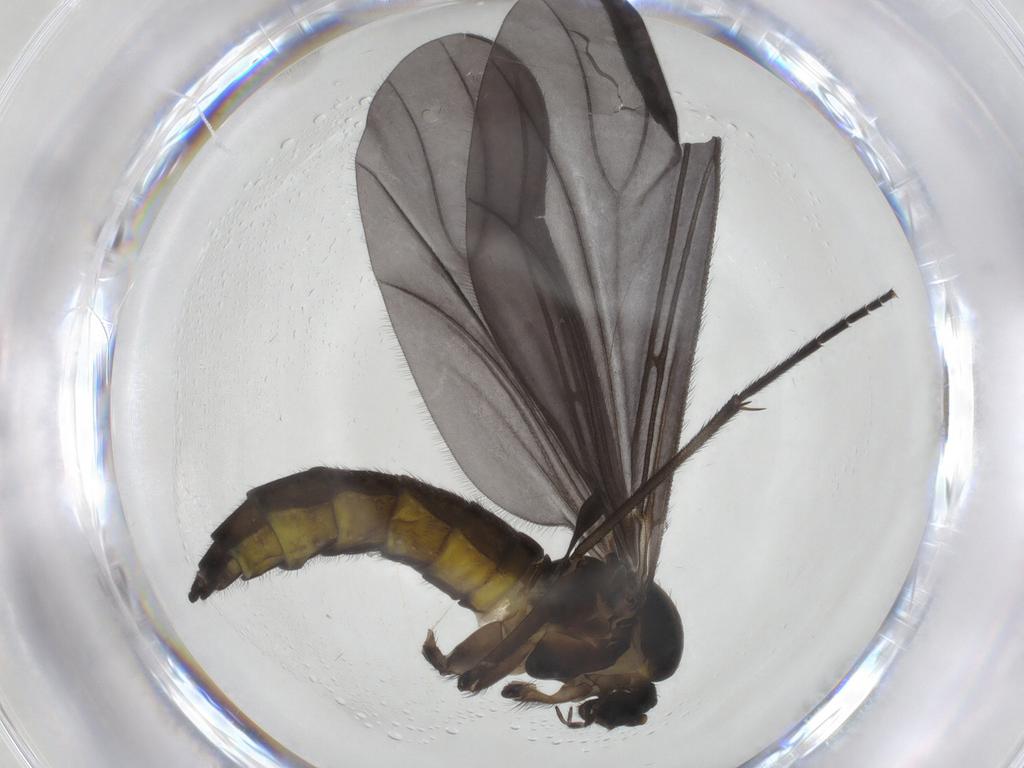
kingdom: Animalia
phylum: Arthropoda
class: Insecta
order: Diptera
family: Sciaridae
